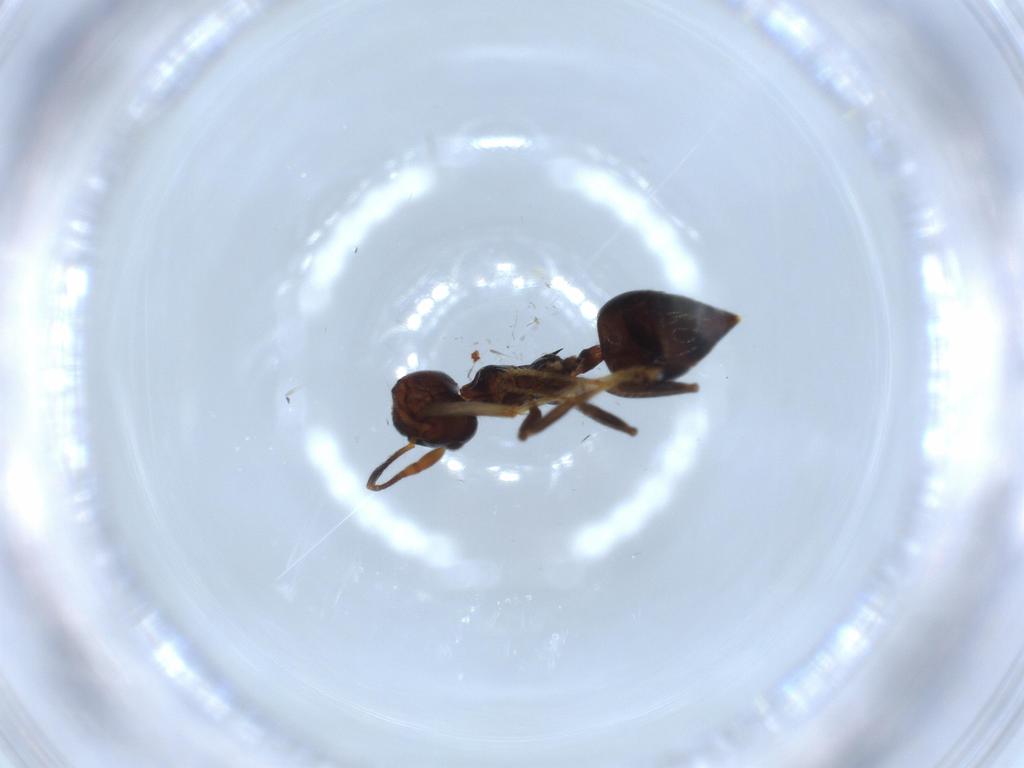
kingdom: Animalia
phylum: Arthropoda
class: Insecta
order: Hymenoptera
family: Formicidae
